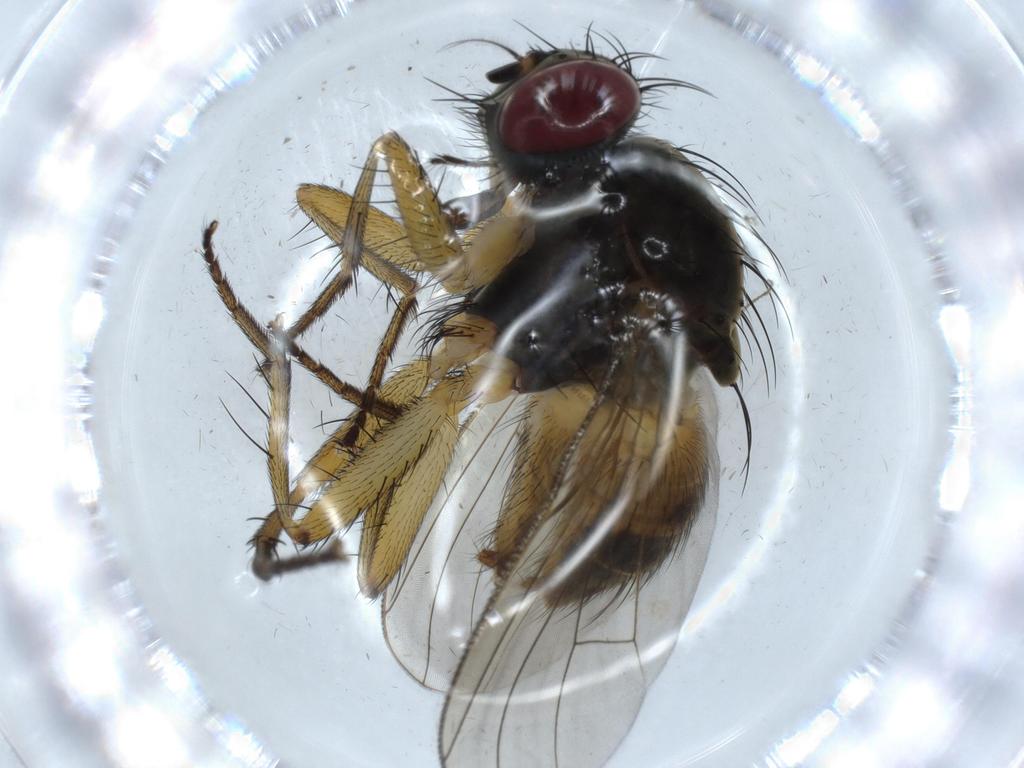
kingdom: Animalia
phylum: Arthropoda
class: Insecta
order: Diptera
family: Muscidae
